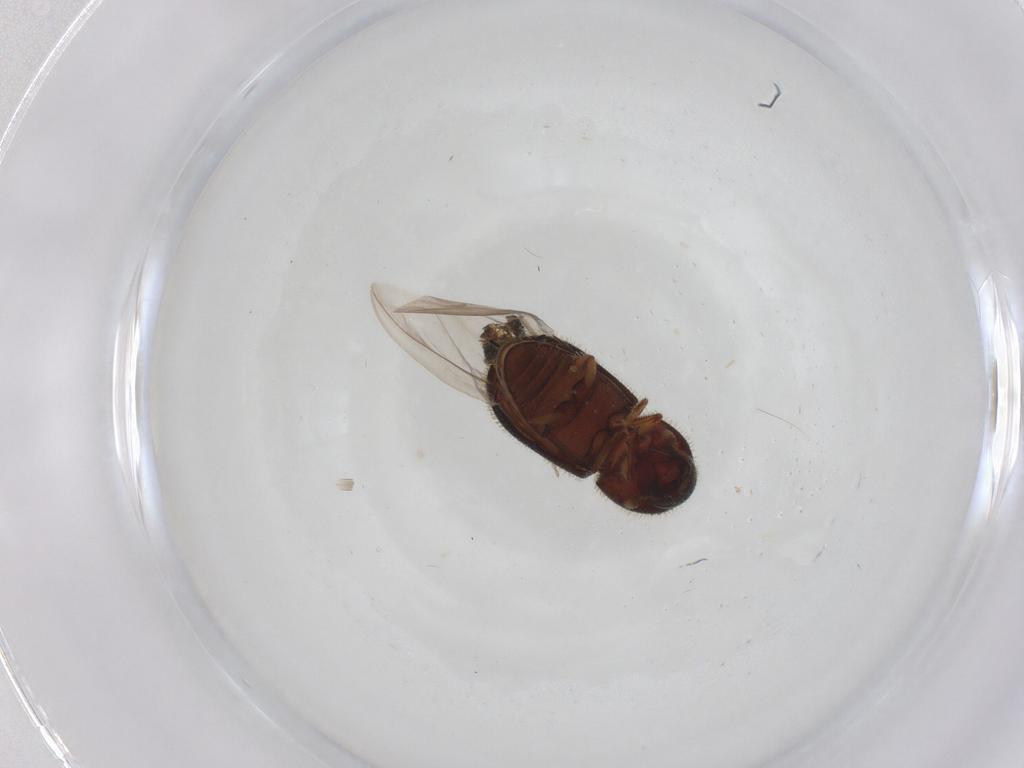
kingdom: Animalia
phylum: Arthropoda
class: Insecta
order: Coleoptera
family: Curculionidae
